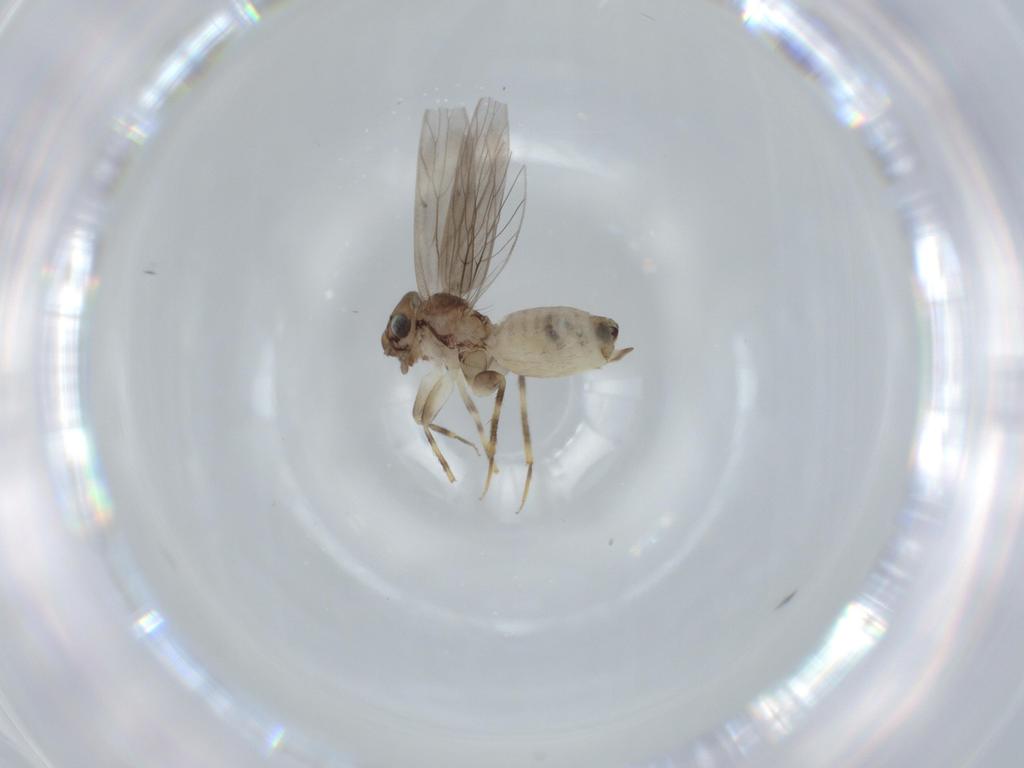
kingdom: Animalia
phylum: Arthropoda
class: Insecta
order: Psocodea
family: Lepidopsocidae
